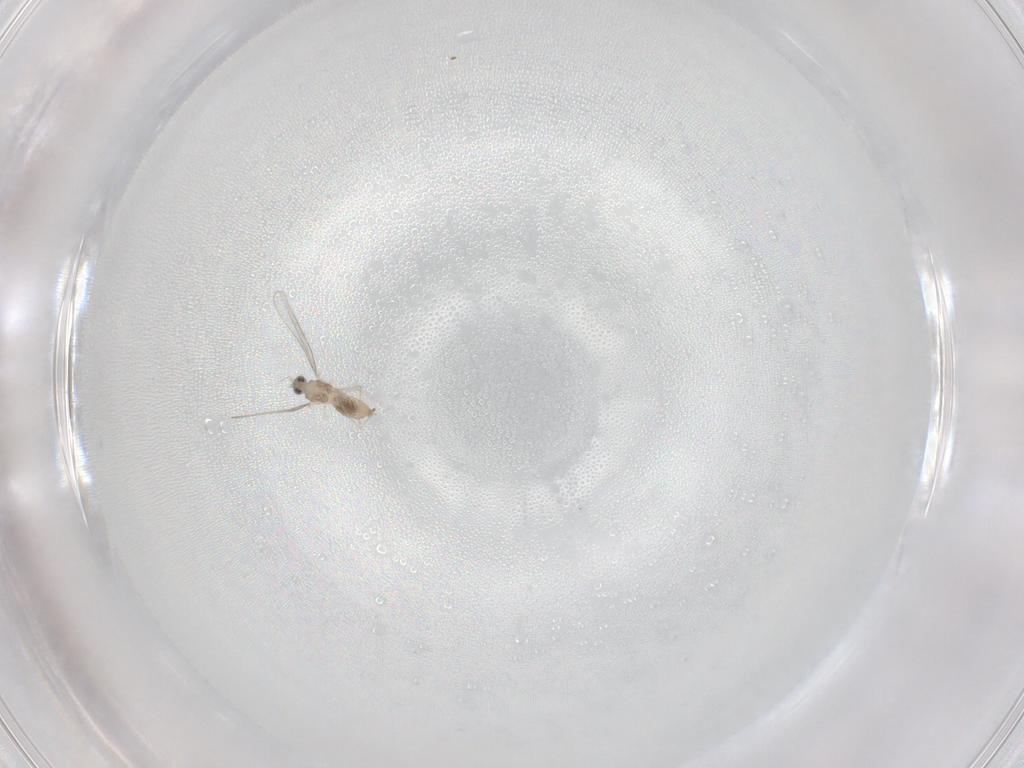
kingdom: Animalia
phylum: Arthropoda
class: Insecta
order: Diptera
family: Cecidomyiidae
